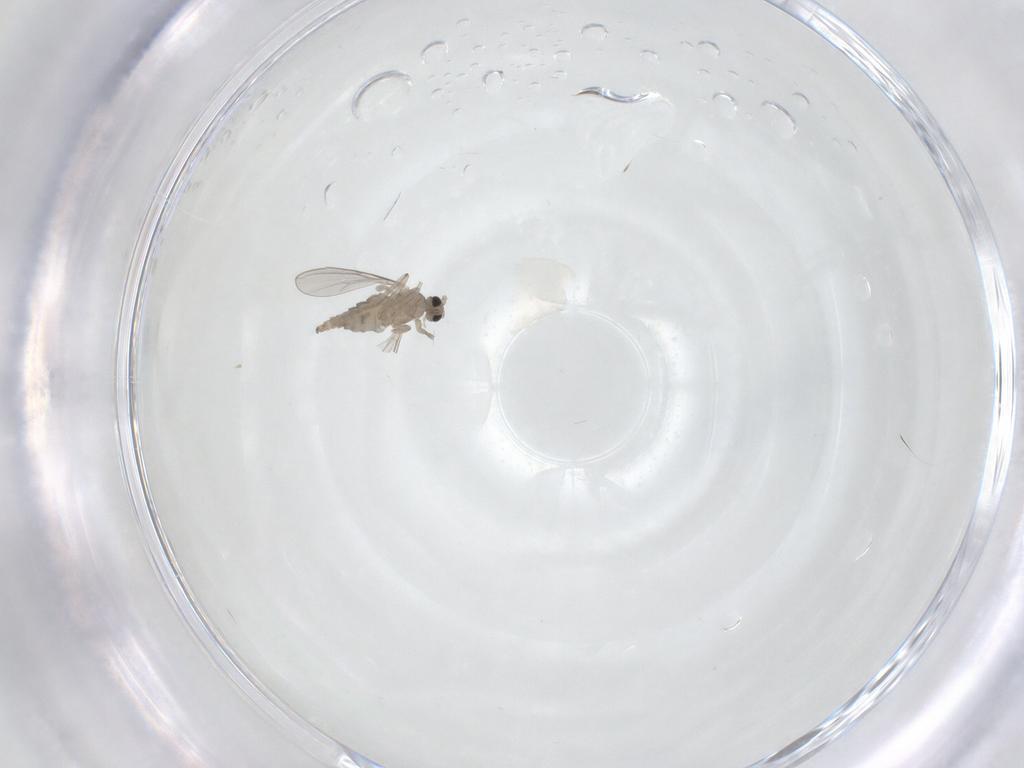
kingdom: Animalia
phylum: Arthropoda
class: Insecta
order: Diptera
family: Cecidomyiidae
